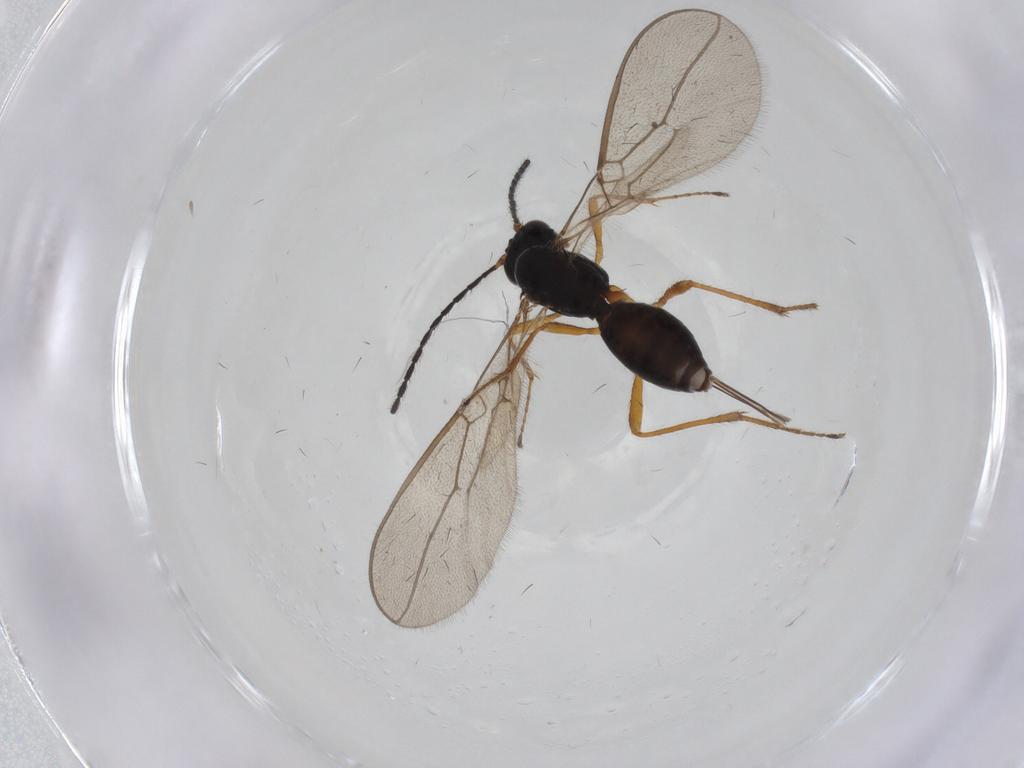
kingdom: Animalia
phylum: Arthropoda
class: Insecta
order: Hymenoptera
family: Braconidae
